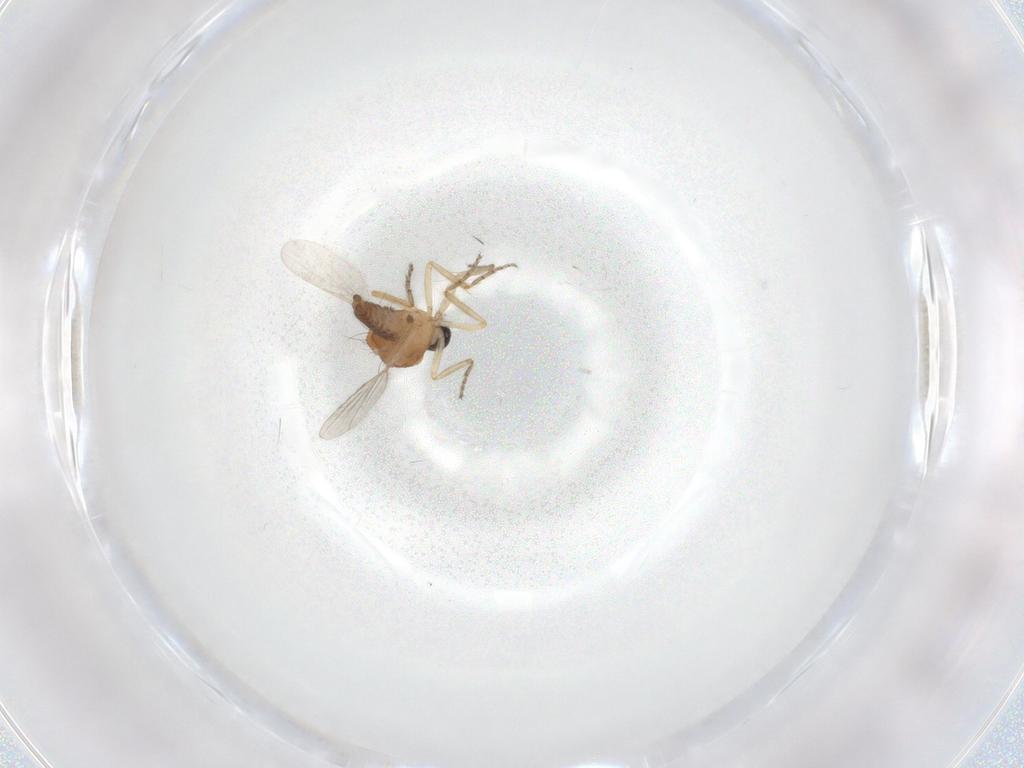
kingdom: Animalia
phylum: Arthropoda
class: Insecta
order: Diptera
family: Ceratopogonidae
